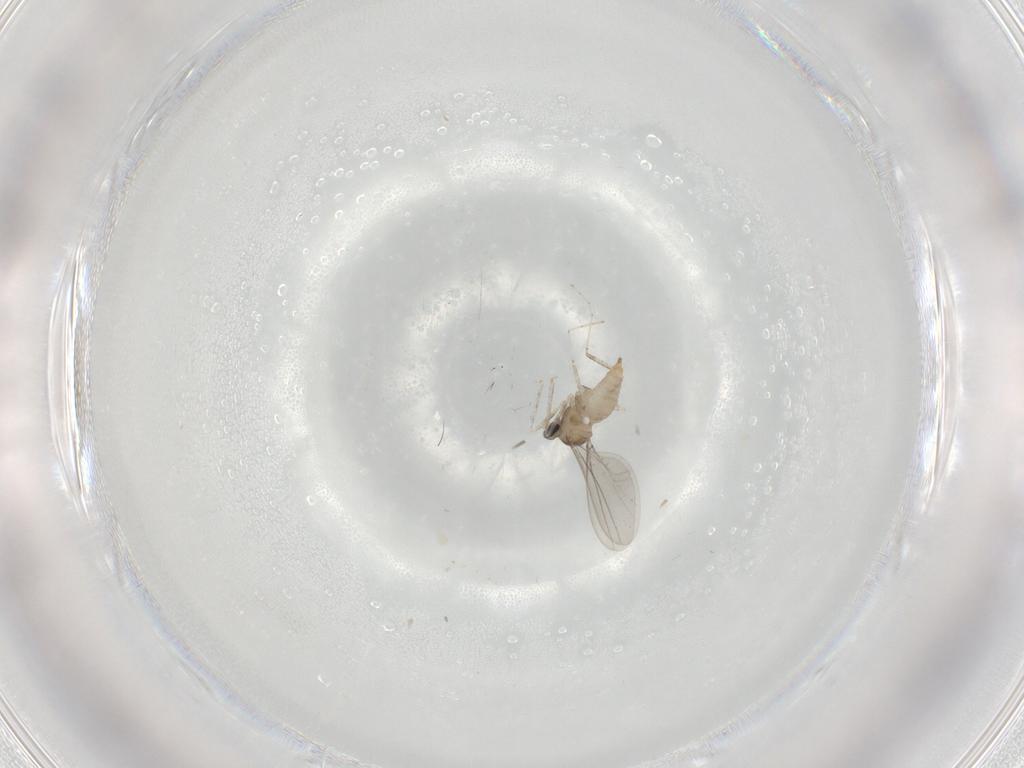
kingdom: Animalia
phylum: Arthropoda
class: Insecta
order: Diptera
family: Cecidomyiidae
